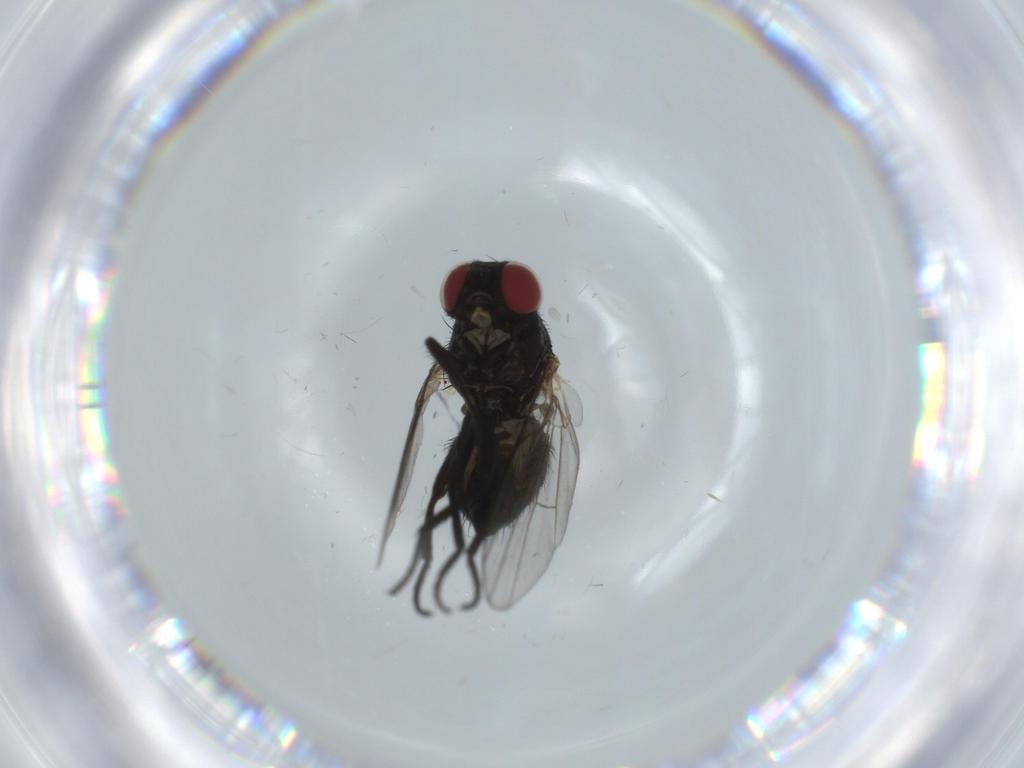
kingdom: Animalia
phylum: Arthropoda
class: Insecta
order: Diptera
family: Agromyzidae
